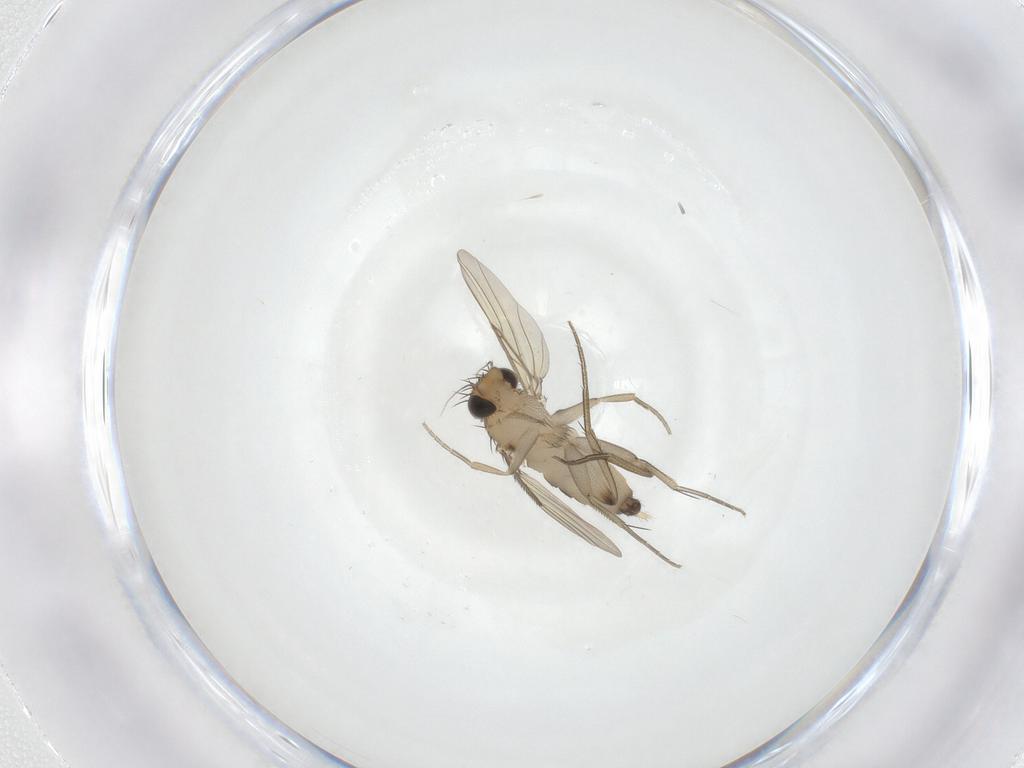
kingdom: Animalia
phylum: Arthropoda
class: Insecta
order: Diptera
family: Phoridae
